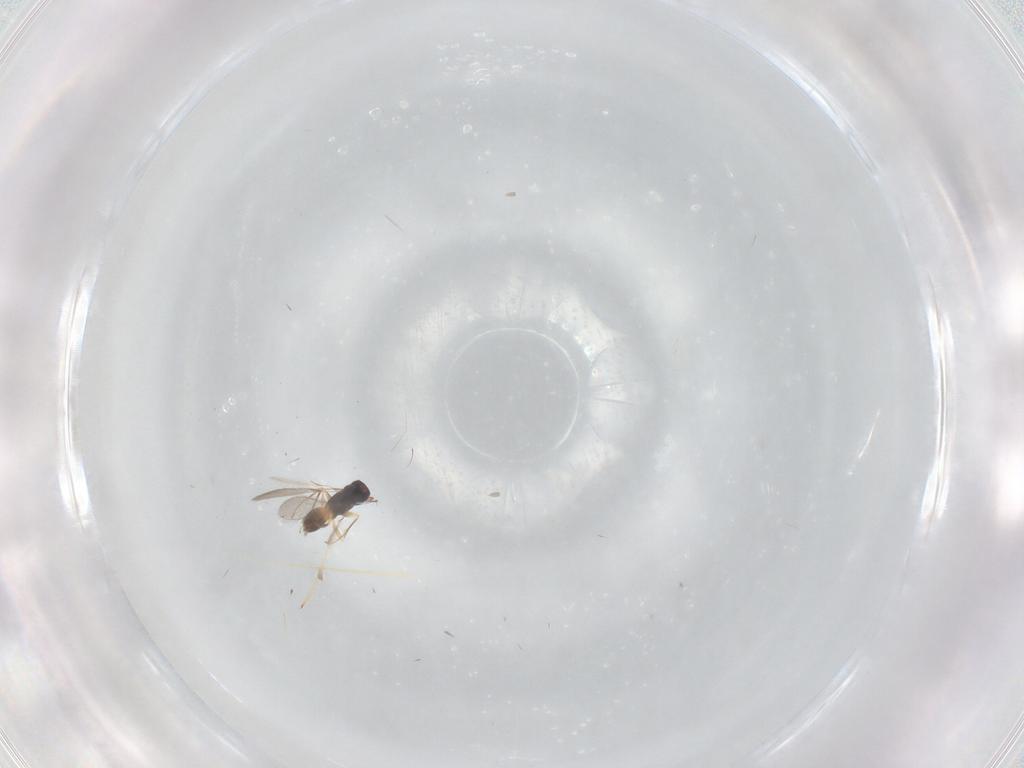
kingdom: Animalia
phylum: Arthropoda
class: Insecta
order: Hymenoptera
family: Mymaridae
